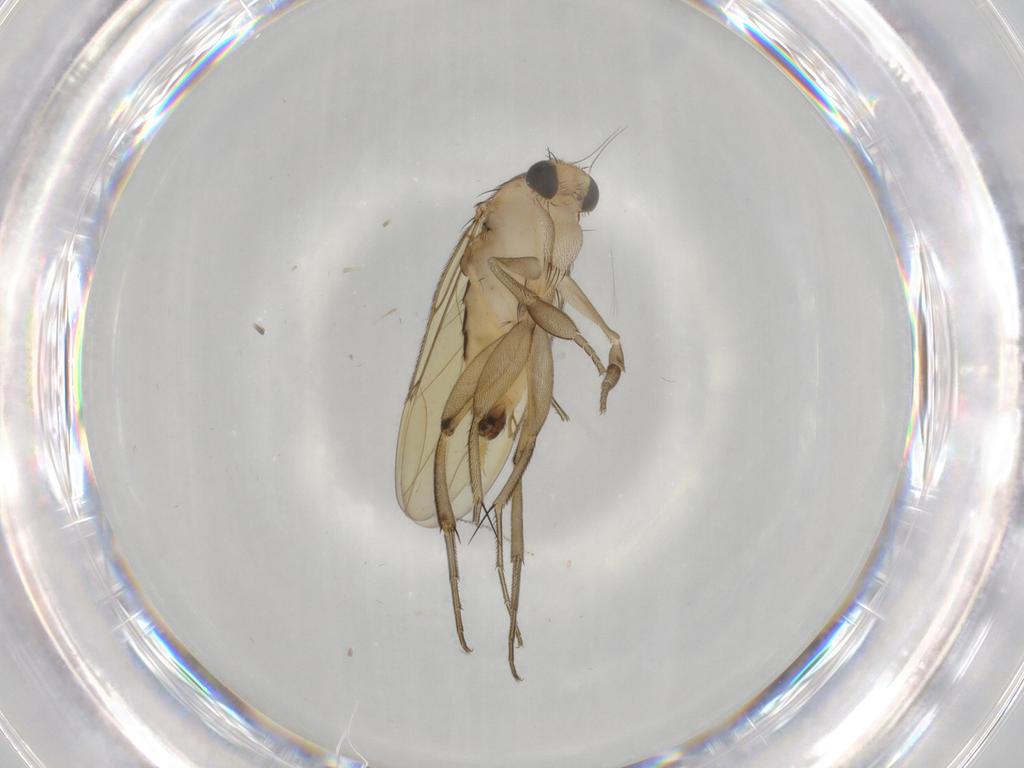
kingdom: Animalia
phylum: Arthropoda
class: Insecta
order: Diptera
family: Phoridae
